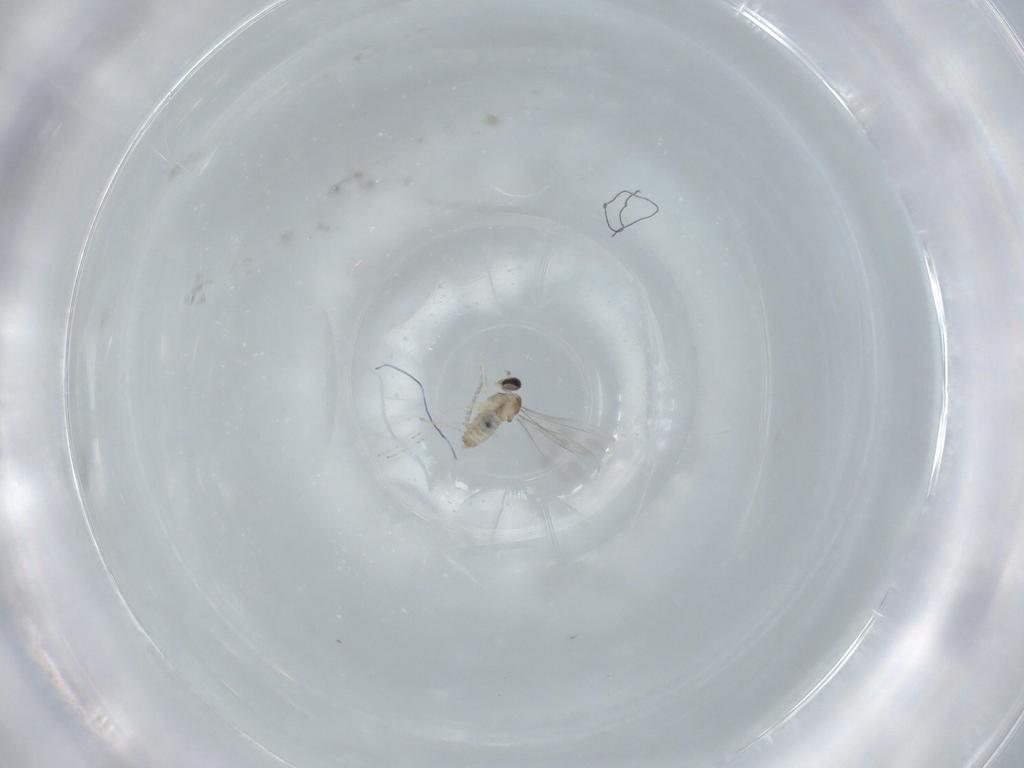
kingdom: Animalia
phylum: Arthropoda
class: Insecta
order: Diptera
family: Cecidomyiidae
